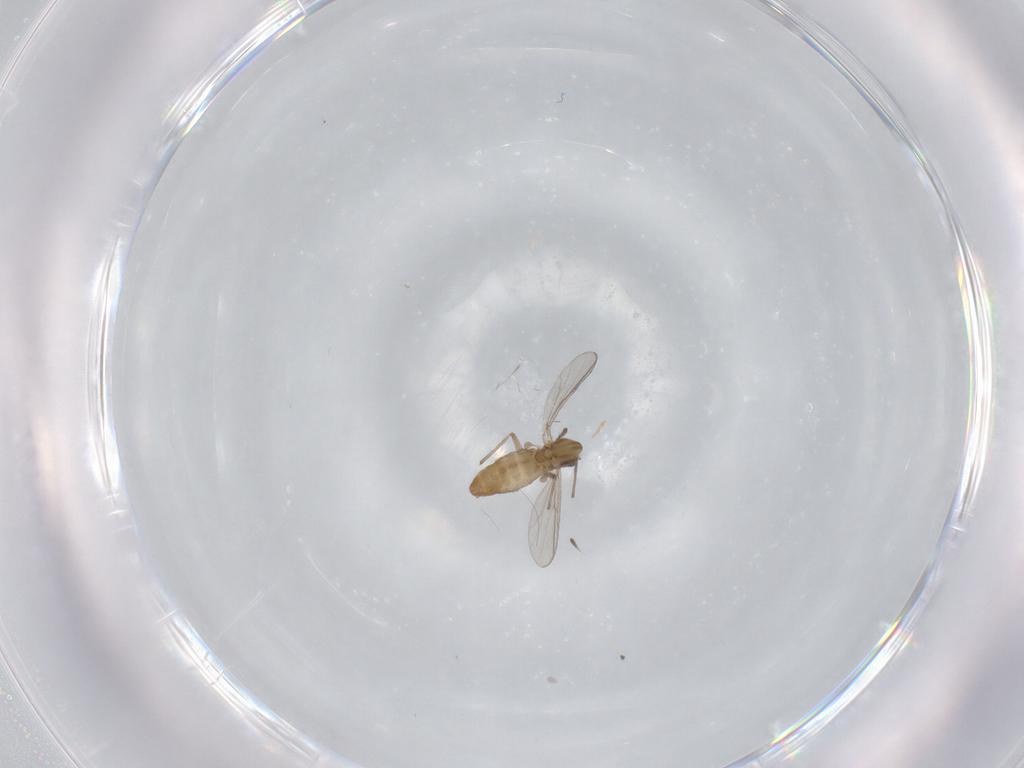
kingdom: Animalia
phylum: Arthropoda
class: Insecta
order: Diptera
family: Chironomidae
